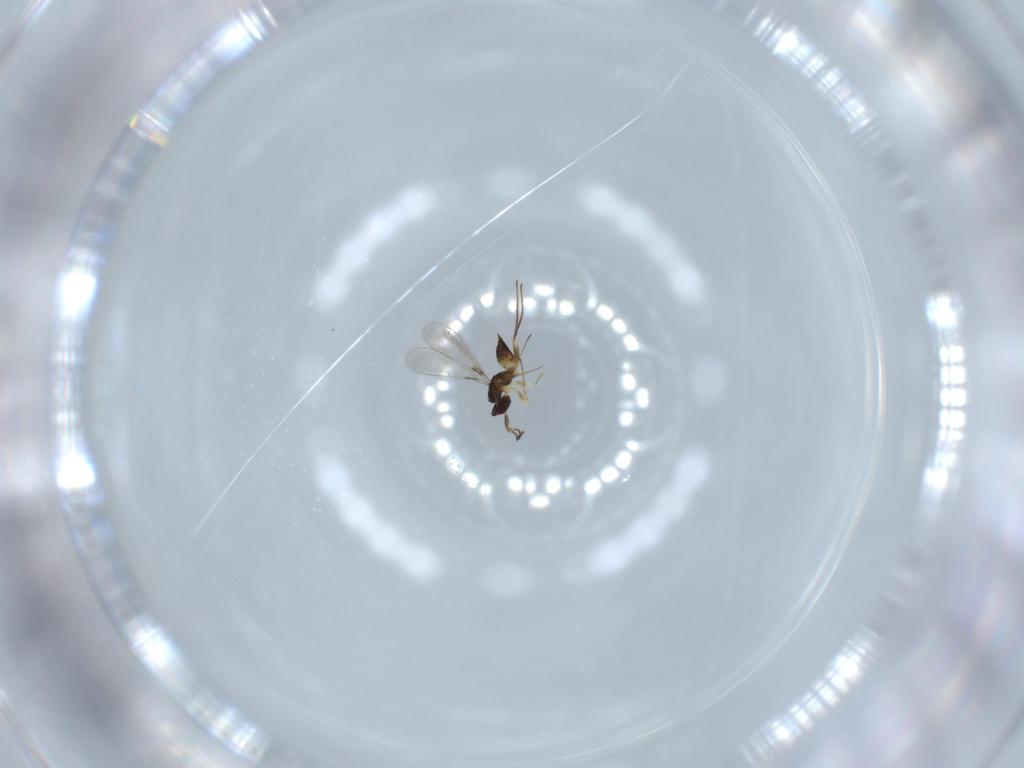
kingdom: Animalia
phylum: Arthropoda
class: Insecta
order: Hymenoptera
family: Mymaridae
